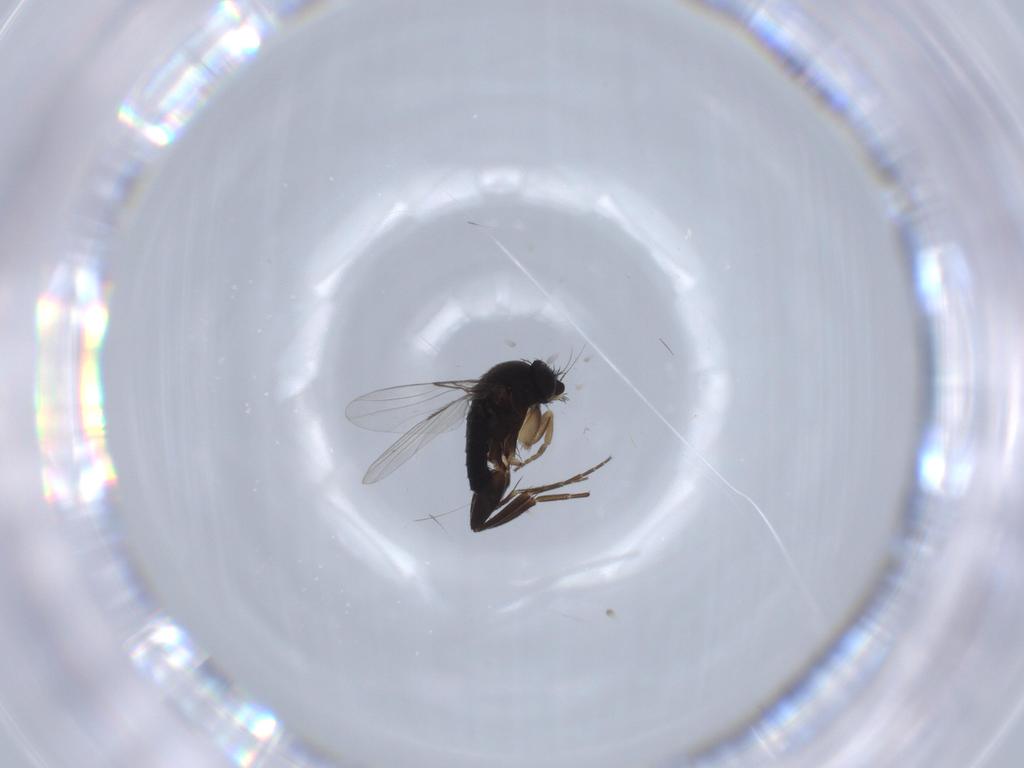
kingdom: Animalia
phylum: Arthropoda
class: Insecta
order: Diptera
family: Phoridae
